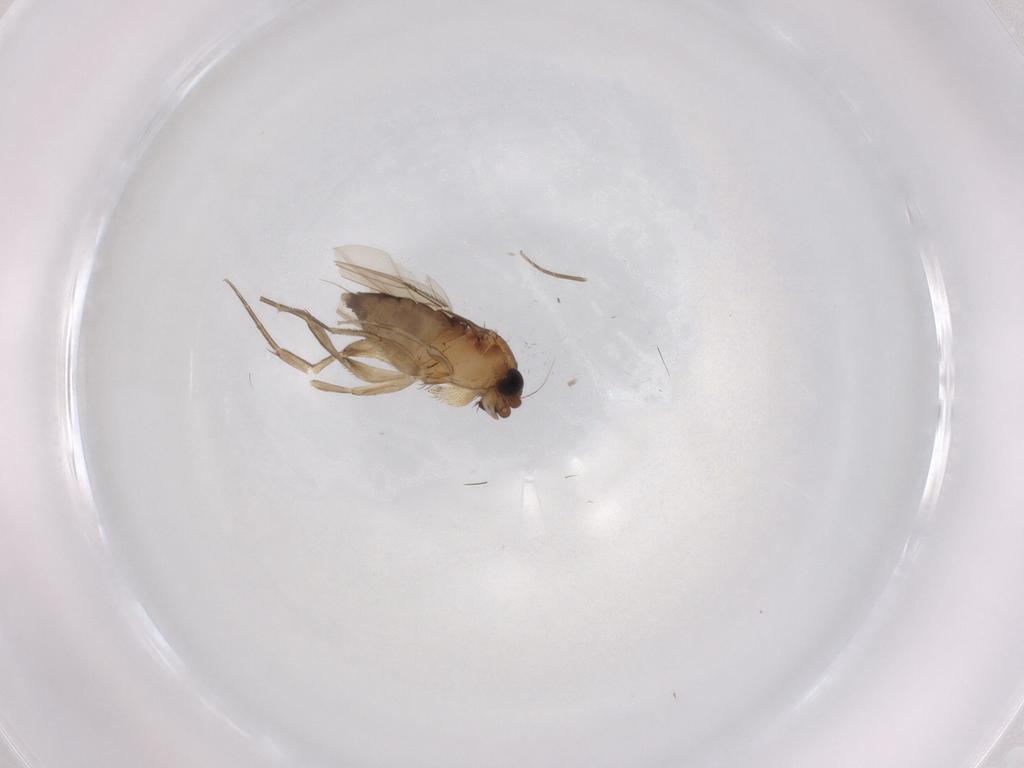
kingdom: Animalia
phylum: Arthropoda
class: Insecta
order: Diptera
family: Phoridae
